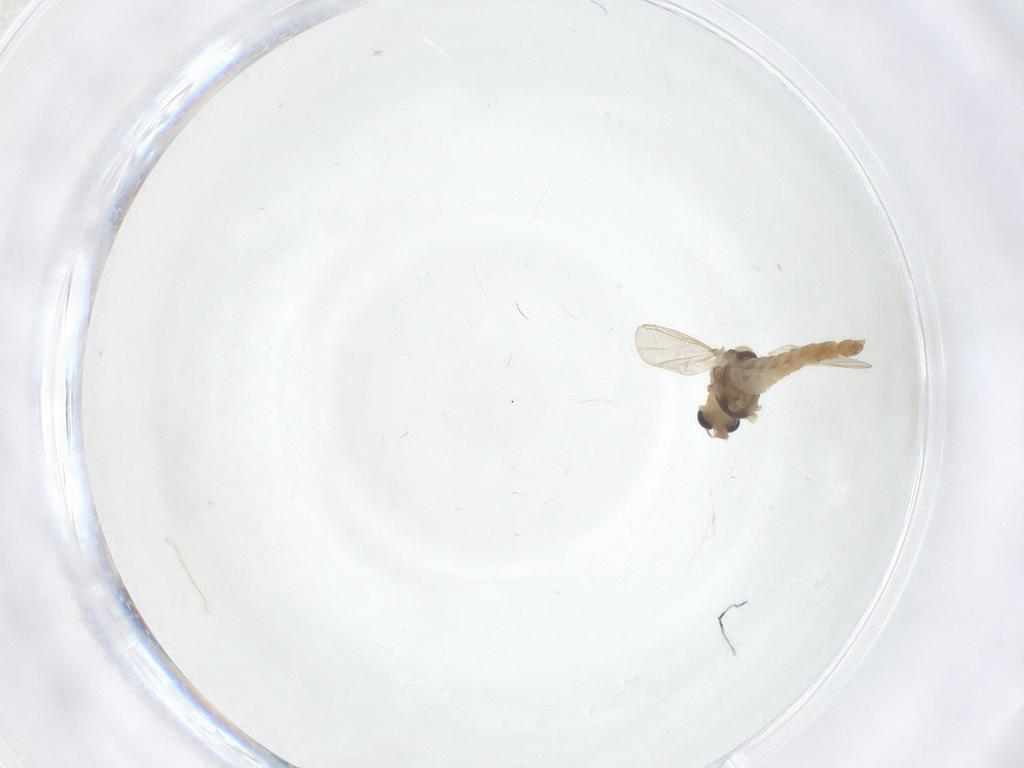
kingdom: Animalia
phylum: Arthropoda
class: Insecta
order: Diptera
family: Chironomidae
